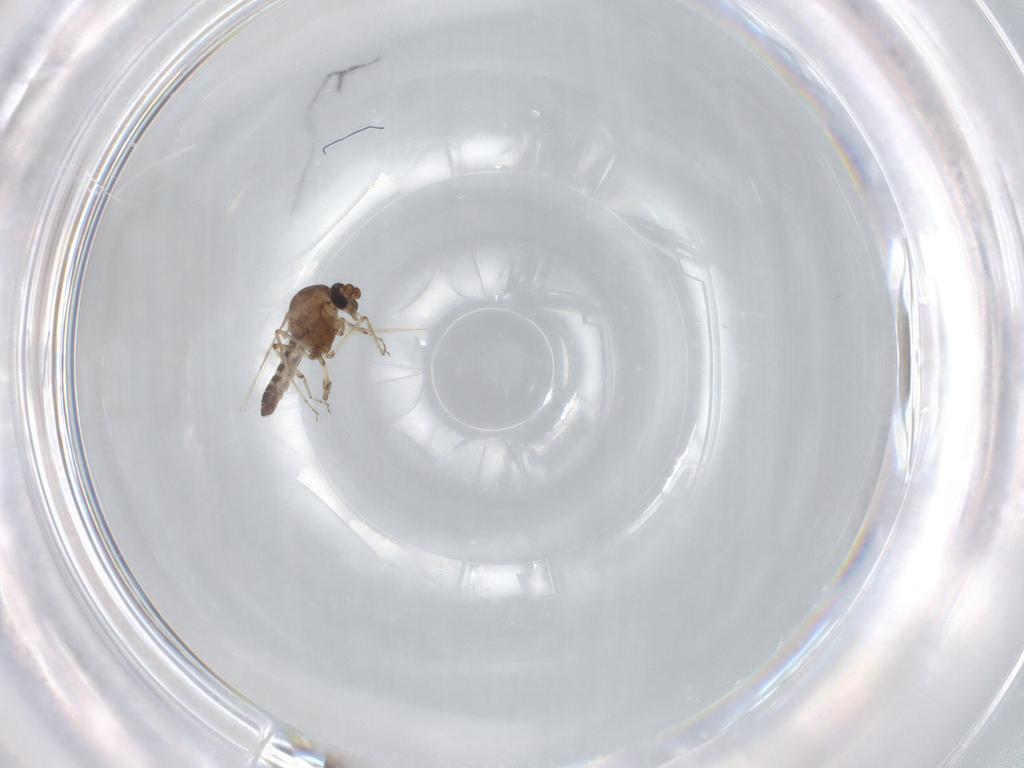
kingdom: Animalia
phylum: Arthropoda
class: Insecta
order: Diptera
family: Ceratopogonidae
